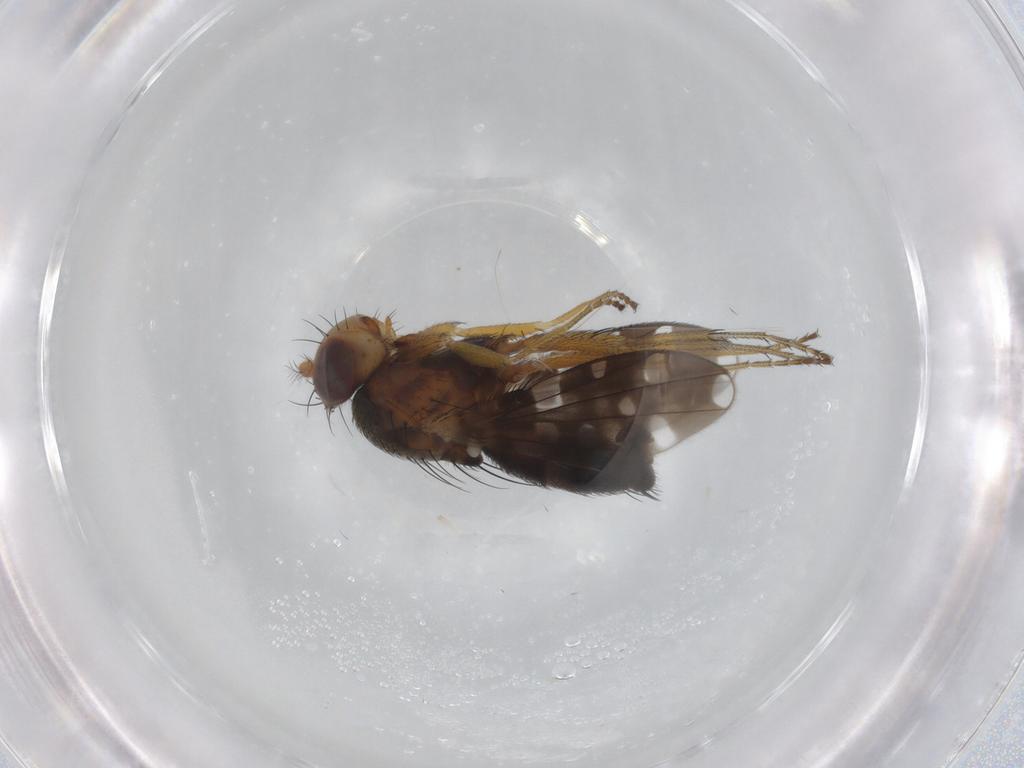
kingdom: Animalia
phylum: Arthropoda
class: Insecta
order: Diptera
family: Ephydridae
